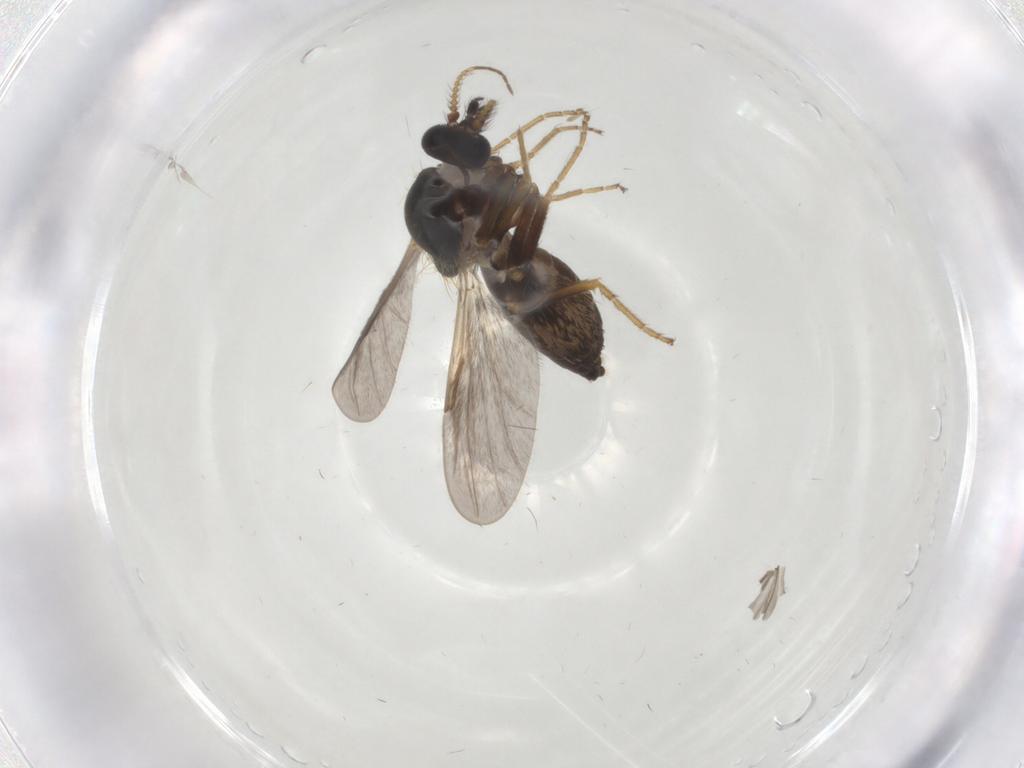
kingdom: Animalia
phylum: Arthropoda
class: Insecta
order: Diptera
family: Ceratopogonidae
